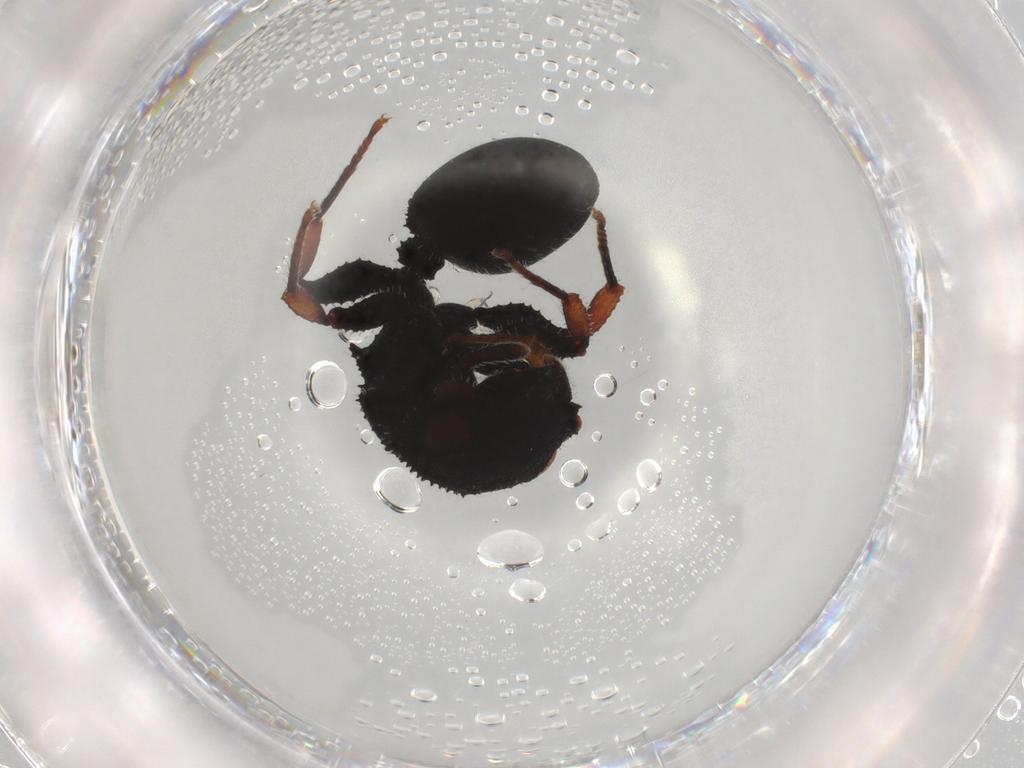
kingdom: Animalia
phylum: Arthropoda
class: Insecta
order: Hymenoptera
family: Formicidae
